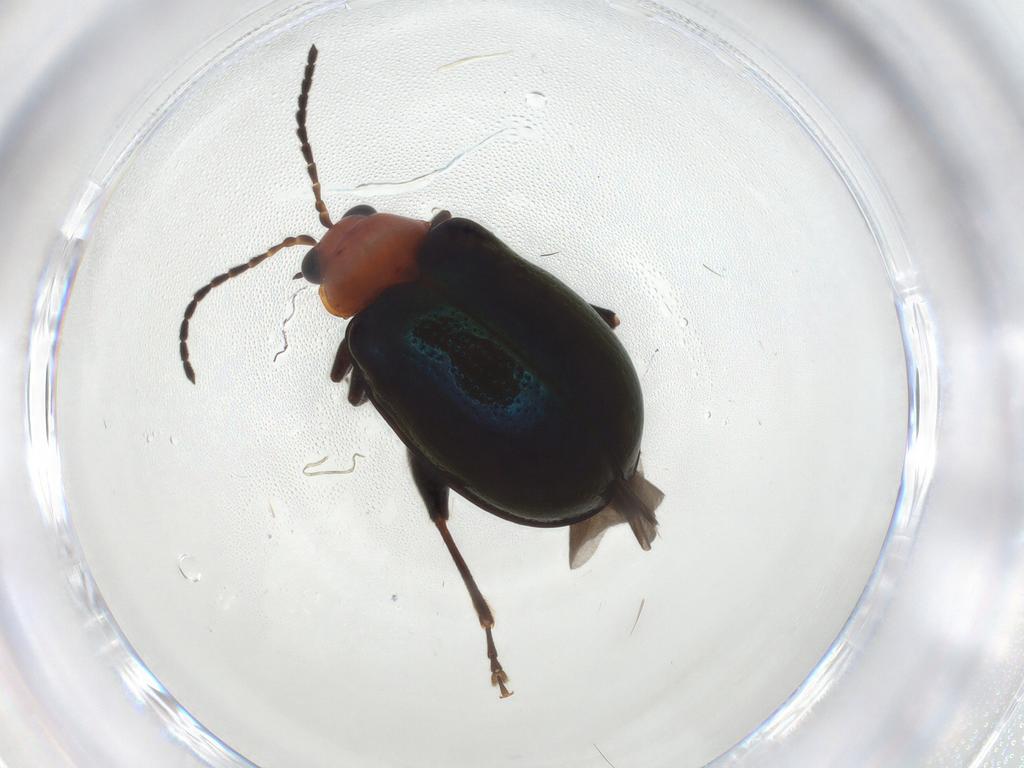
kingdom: Animalia
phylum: Arthropoda
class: Insecta
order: Coleoptera
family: Chrysomelidae
